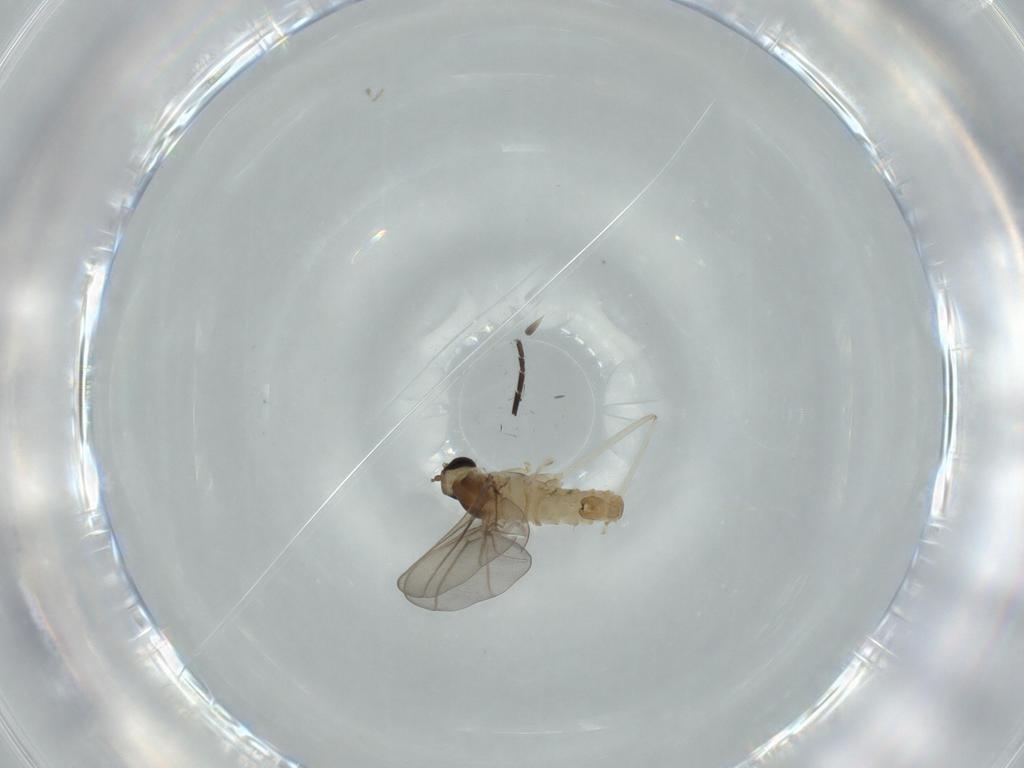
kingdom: Animalia
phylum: Arthropoda
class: Insecta
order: Diptera
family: Cecidomyiidae
